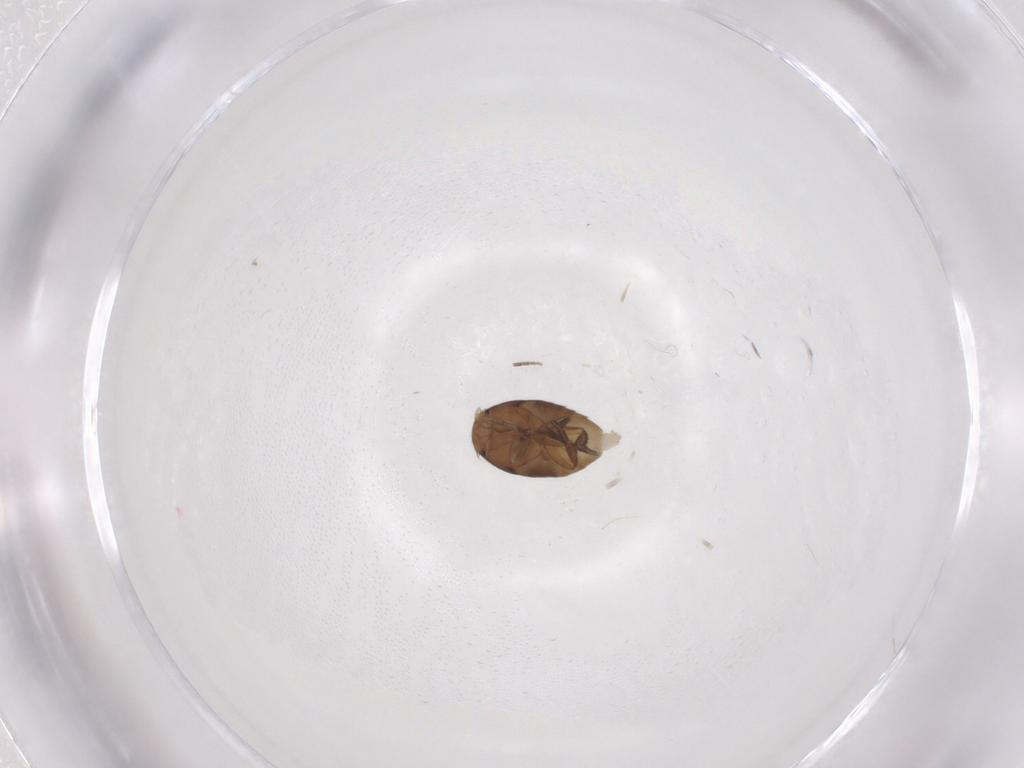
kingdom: Animalia
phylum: Arthropoda
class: Insecta
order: Diptera
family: Phoridae
